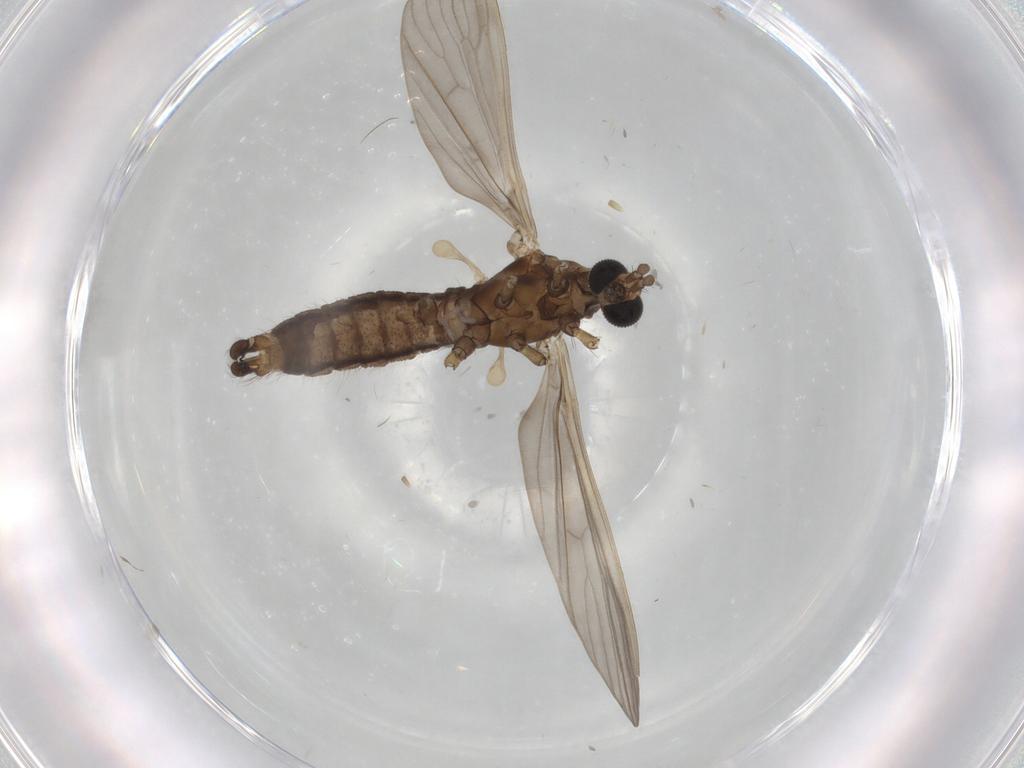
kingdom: Animalia
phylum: Arthropoda
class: Insecta
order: Diptera
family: Limoniidae
